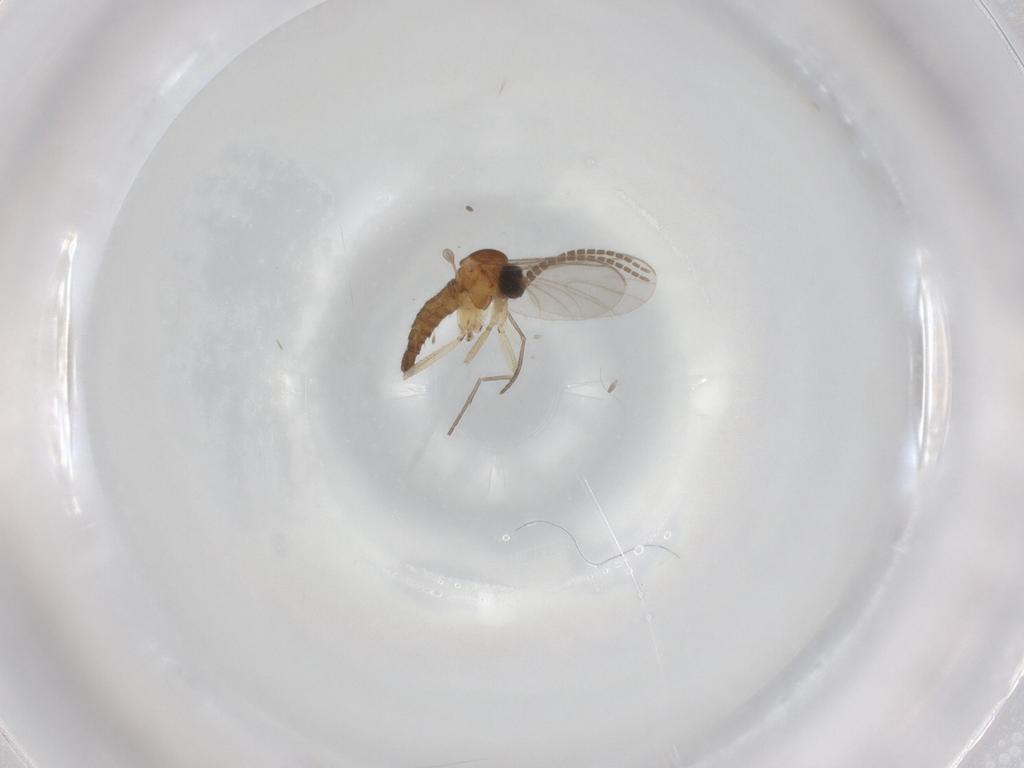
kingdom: Animalia
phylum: Arthropoda
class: Insecta
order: Diptera
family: Sciaridae
